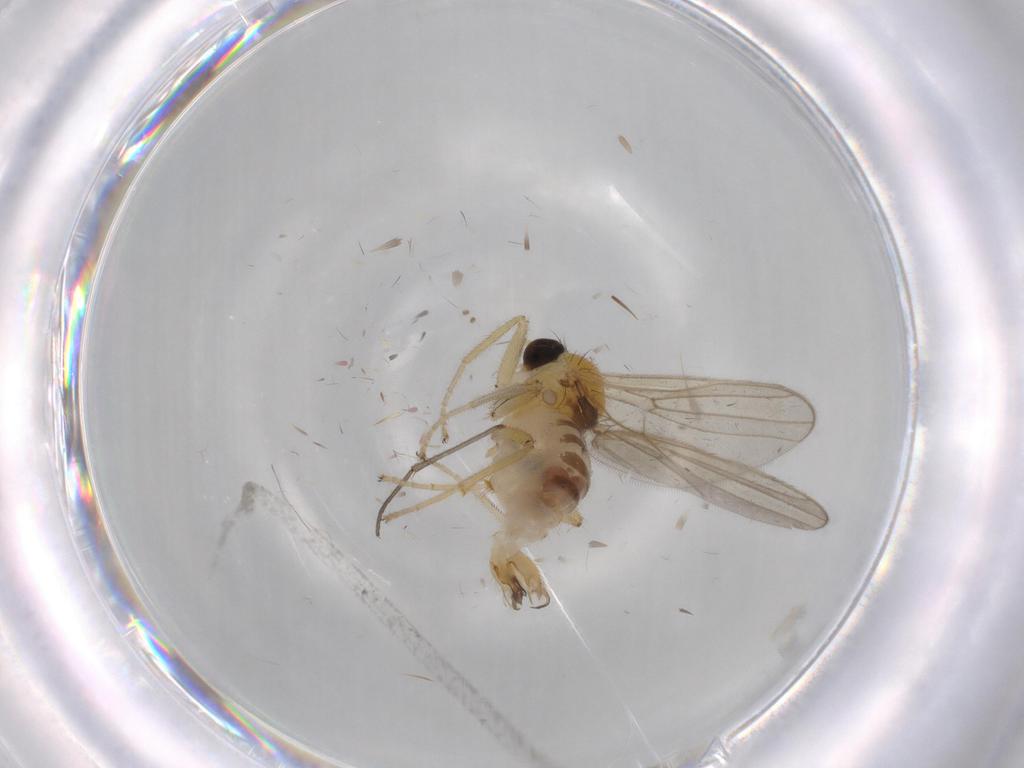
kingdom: Animalia
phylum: Arthropoda
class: Insecta
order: Diptera
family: Hybotidae
